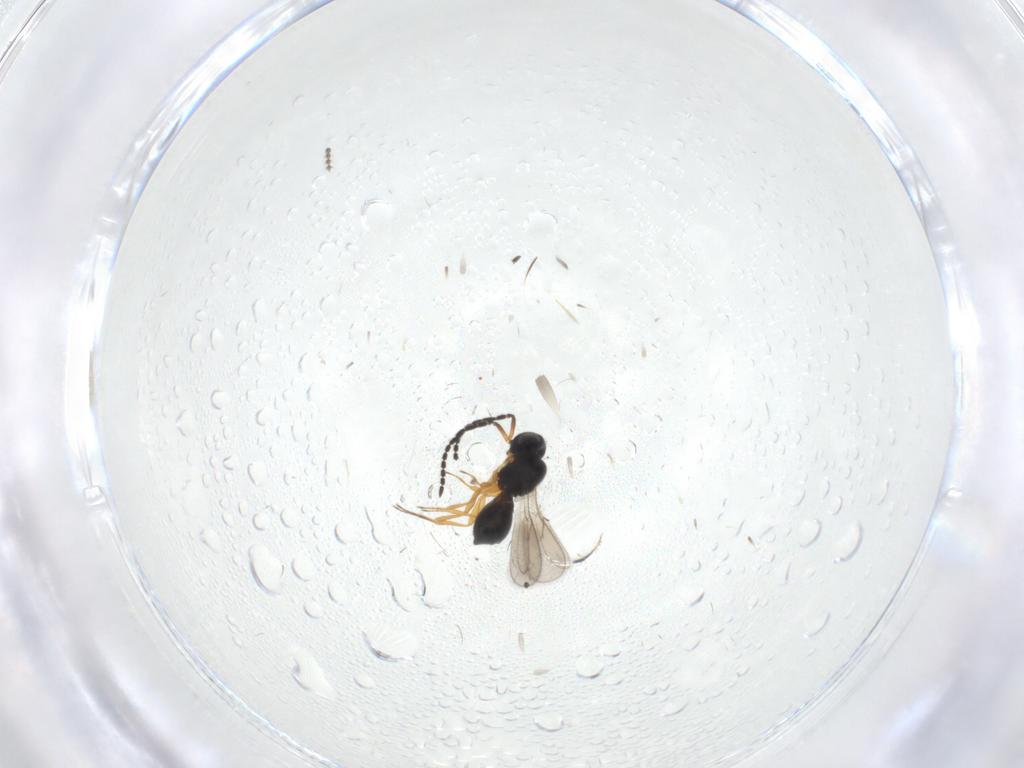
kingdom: Animalia
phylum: Arthropoda
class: Insecta
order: Hymenoptera
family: Scelionidae
